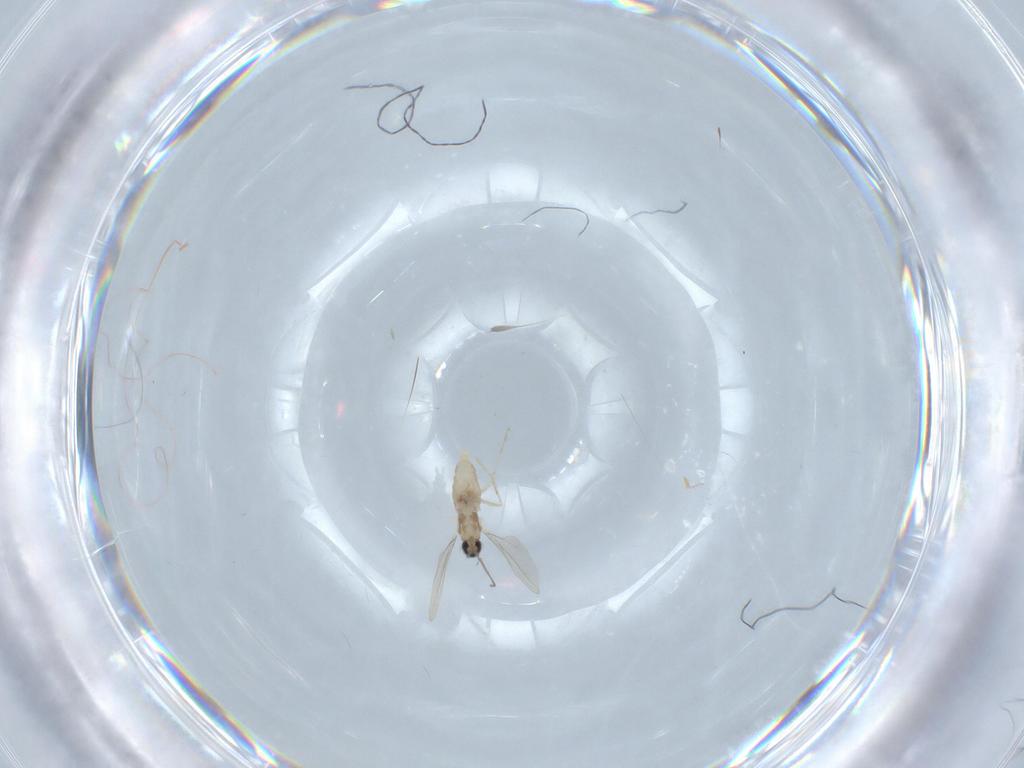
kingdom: Animalia
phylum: Arthropoda
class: Insecta
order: Diptera
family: Cecidomyiidae
